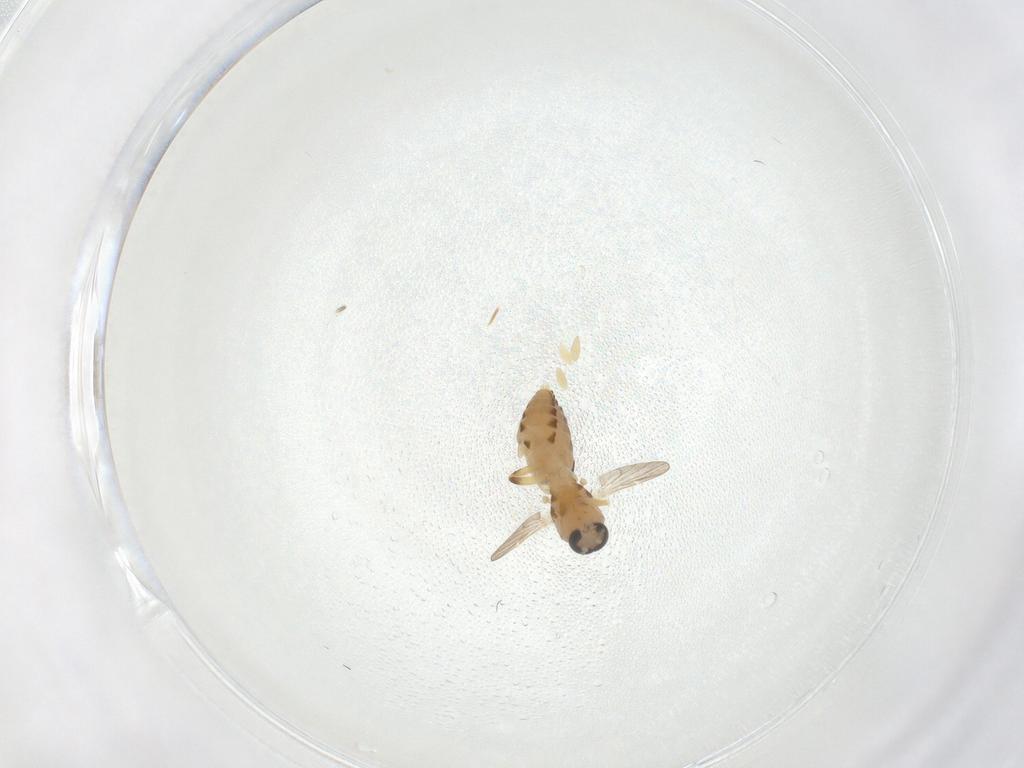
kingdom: Animalia
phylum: Arthropoda
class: Insecta
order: Diptera
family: Ceratopogonidae
